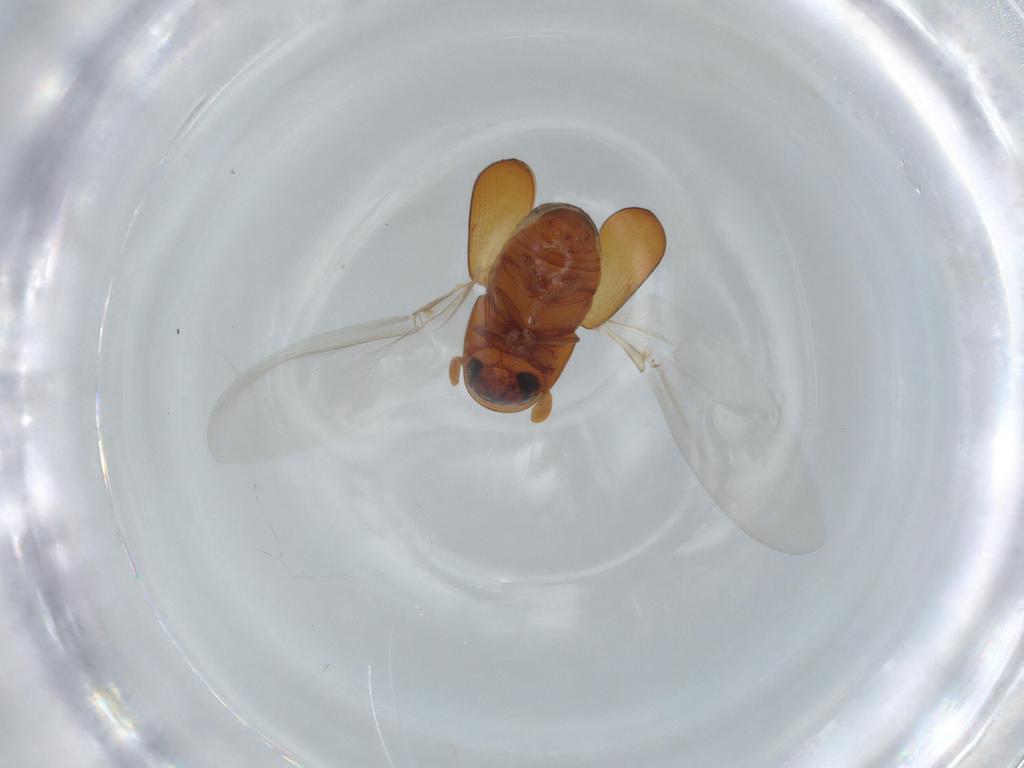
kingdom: Animalia
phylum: Arthropoda
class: Insecta
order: Coleoptera
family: Curculionidae
